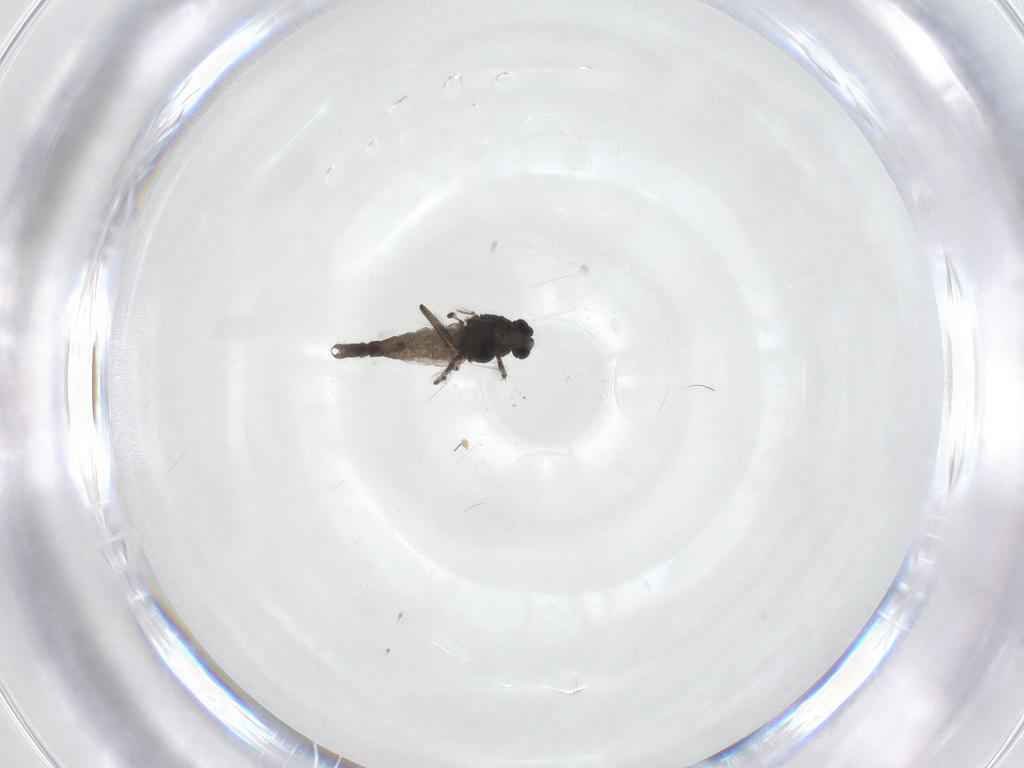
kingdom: Animalia
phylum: Arthropoda
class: Insecta
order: Diptera
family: Chironomidae
